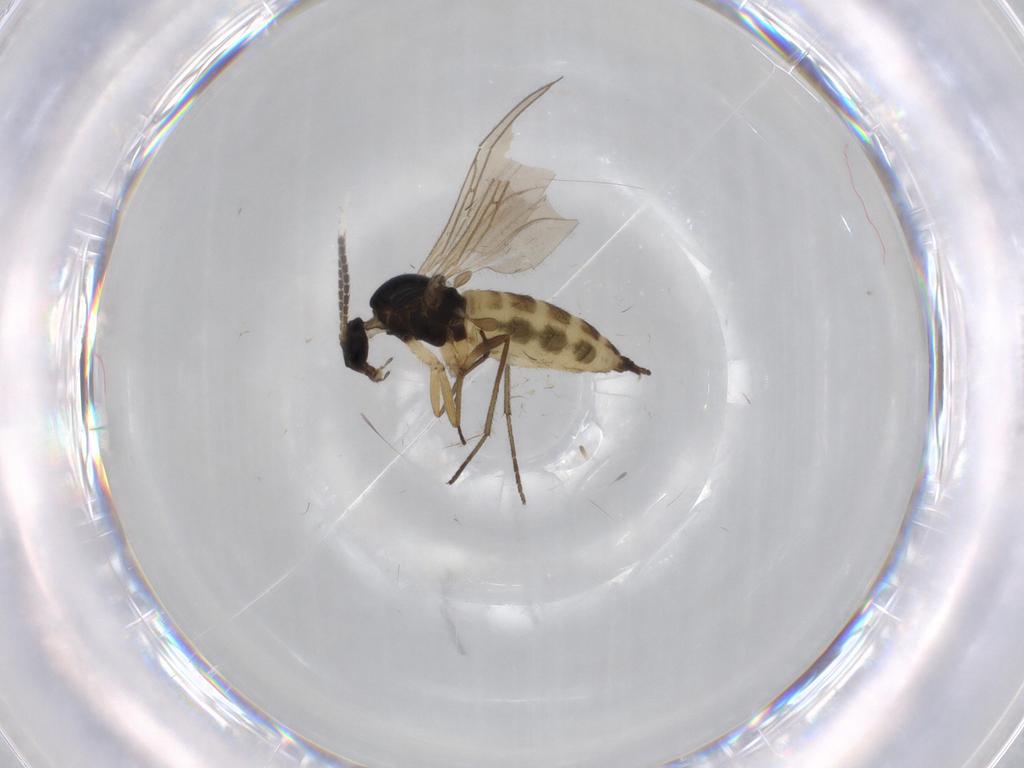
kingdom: Animalia
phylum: Arthropoda
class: Insecta
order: Diptera
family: Sciaridae
